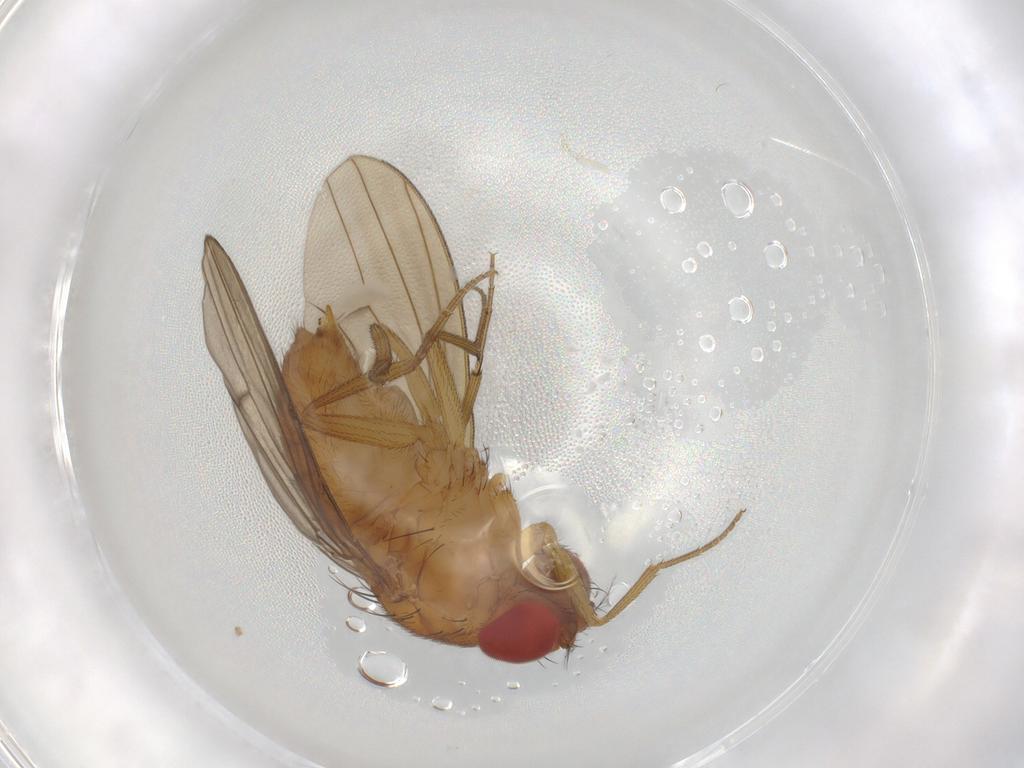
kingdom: Animalia
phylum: Arthropoda
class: Insecta
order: Diptera
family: Drosophilidae
